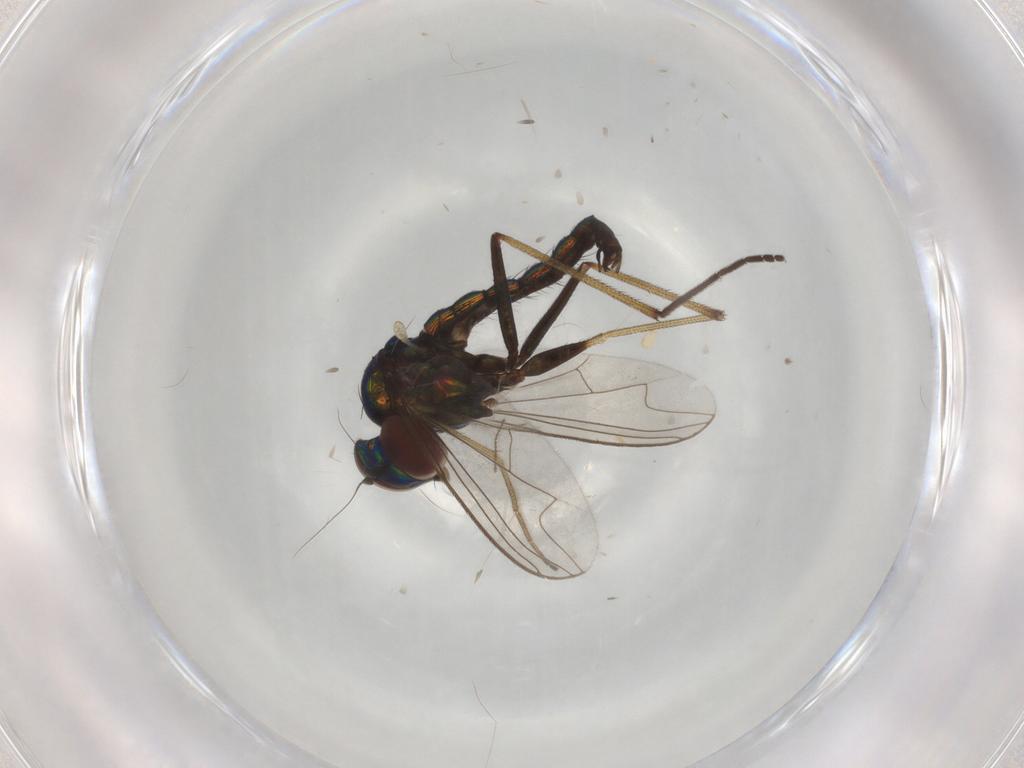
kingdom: Animalia
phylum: Arthropoda
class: Insecta
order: Diptera
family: Dolichopodidae
